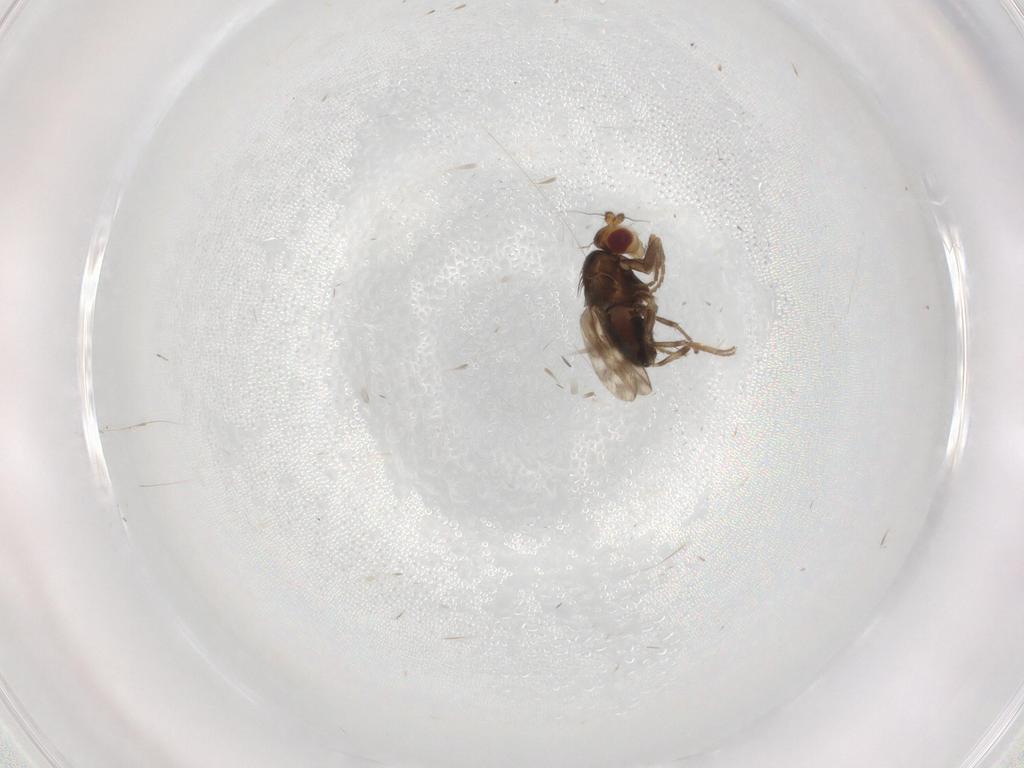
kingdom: Animalia
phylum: Arthropoda
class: Insecta
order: Diptera
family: Sphaeroceridae
